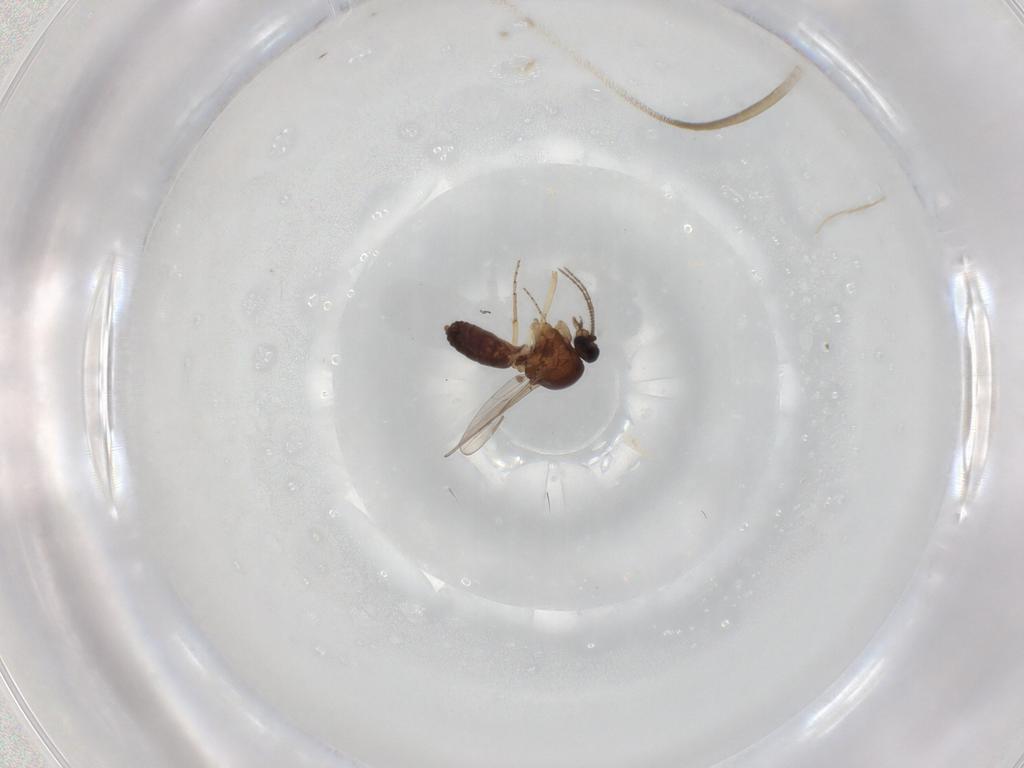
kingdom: Animalia
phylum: Arthropoda
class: Insecta
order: Diptera
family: Ceratopogonidae
